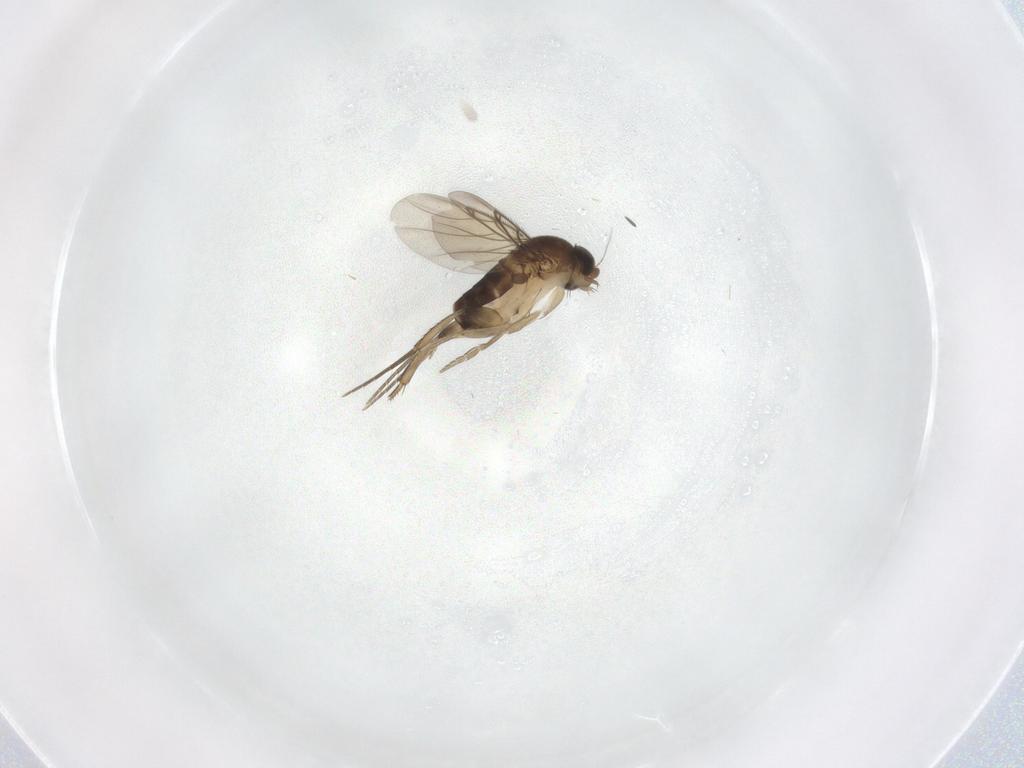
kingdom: Animalia
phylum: Arthropoda
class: Insecta
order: Diptera
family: Phoridae
